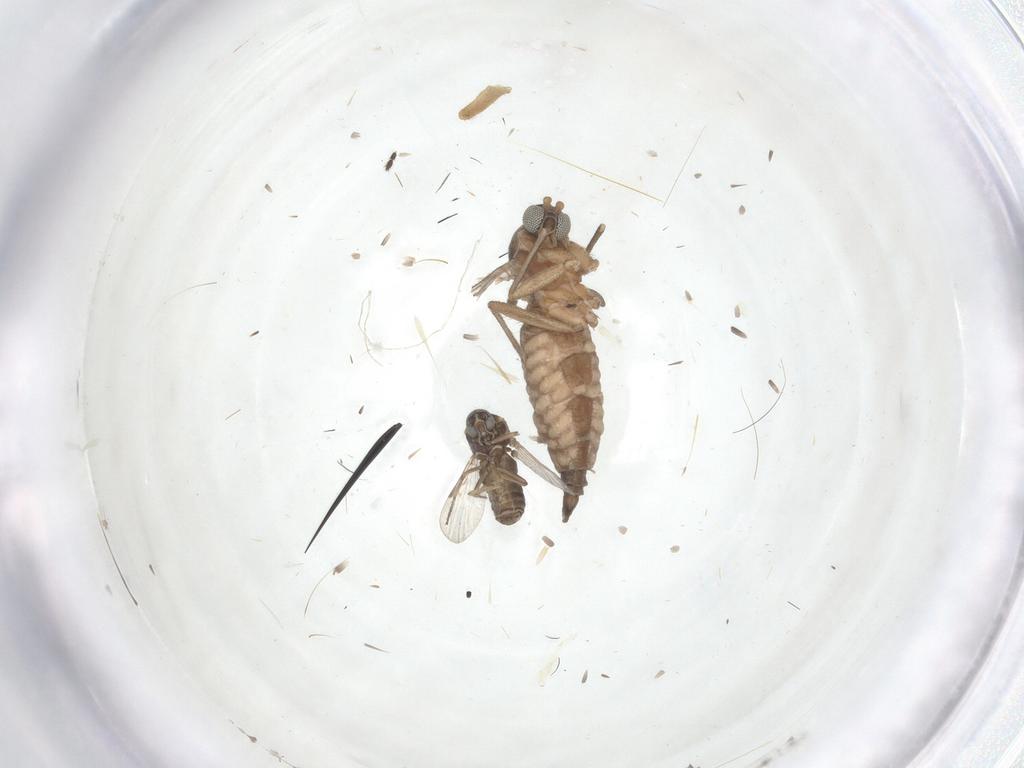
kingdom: Animalia
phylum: Arthropoda
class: Insecta
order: Diptera
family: Sciaridae
